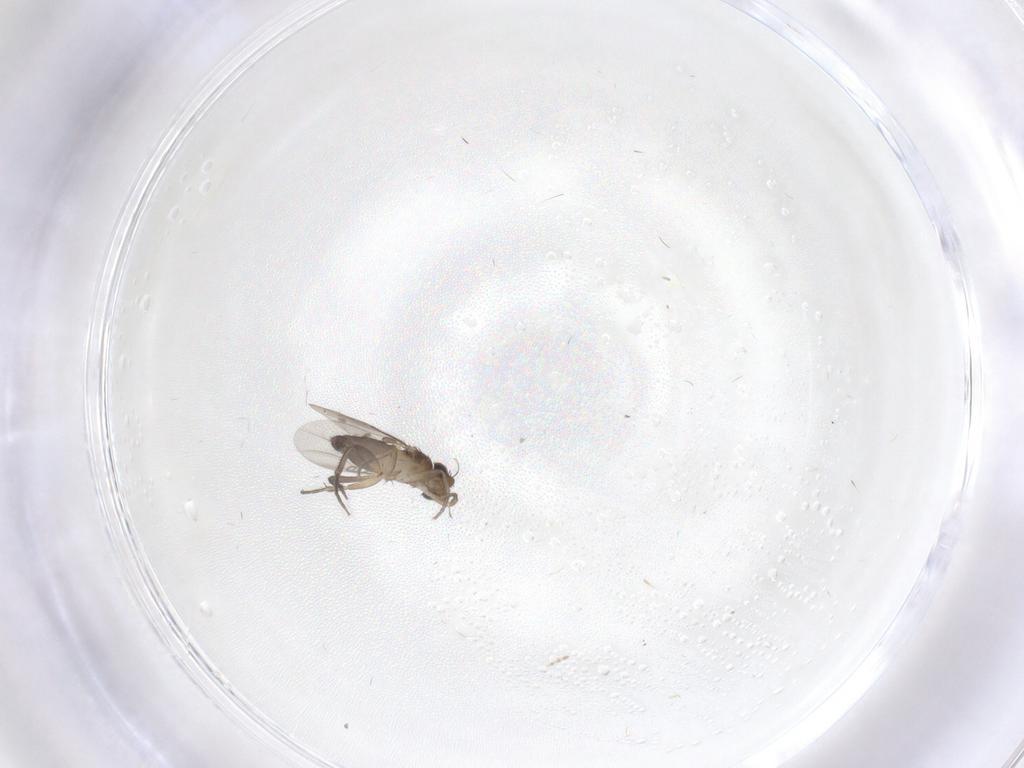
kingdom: Animalia
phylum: Arthropoda
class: Insecta
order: Diptera
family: Phoridae
